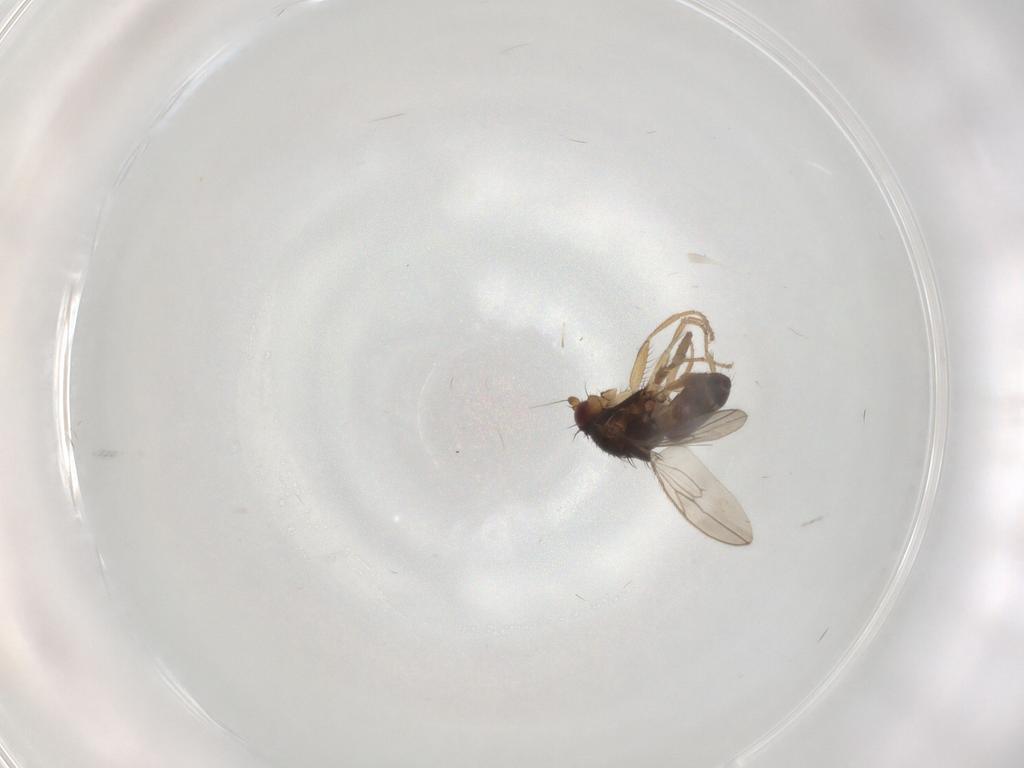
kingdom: Animalia
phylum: Arthropoda
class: Insecta
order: Diptera
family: Sphaeroceridae
